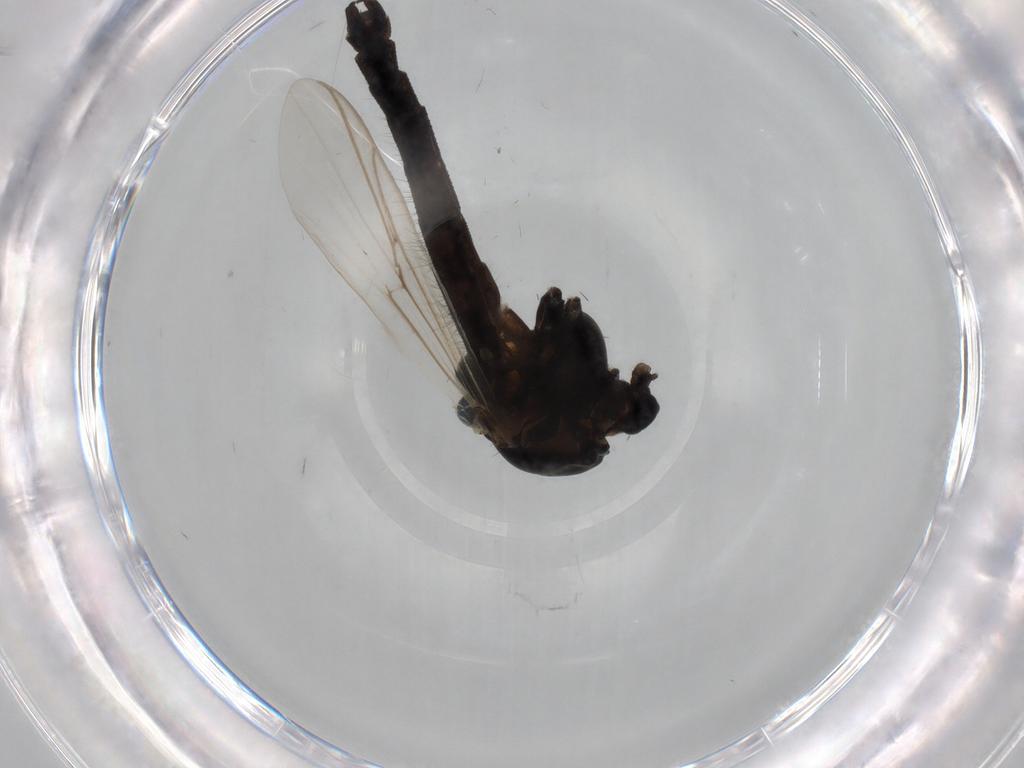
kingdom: Animalia
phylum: Arthropoda
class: Insecta
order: Diptera
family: Chironomidae
